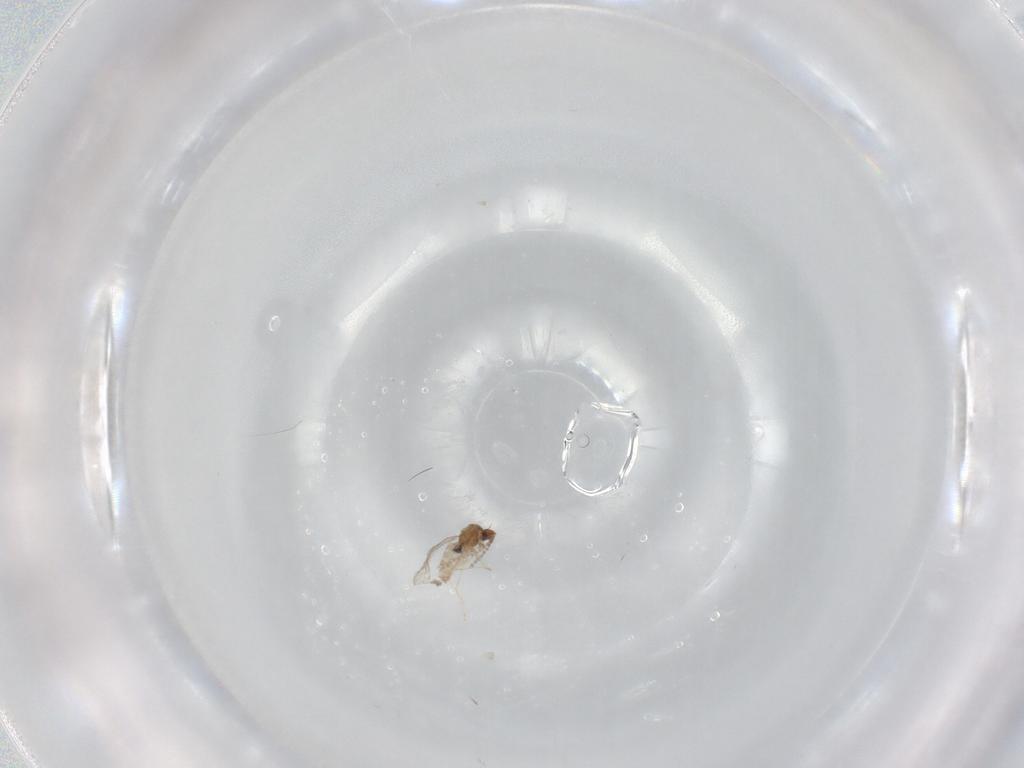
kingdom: Animalia
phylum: Arthropoda
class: Insecta
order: Diptera
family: Cecidomyiidae
